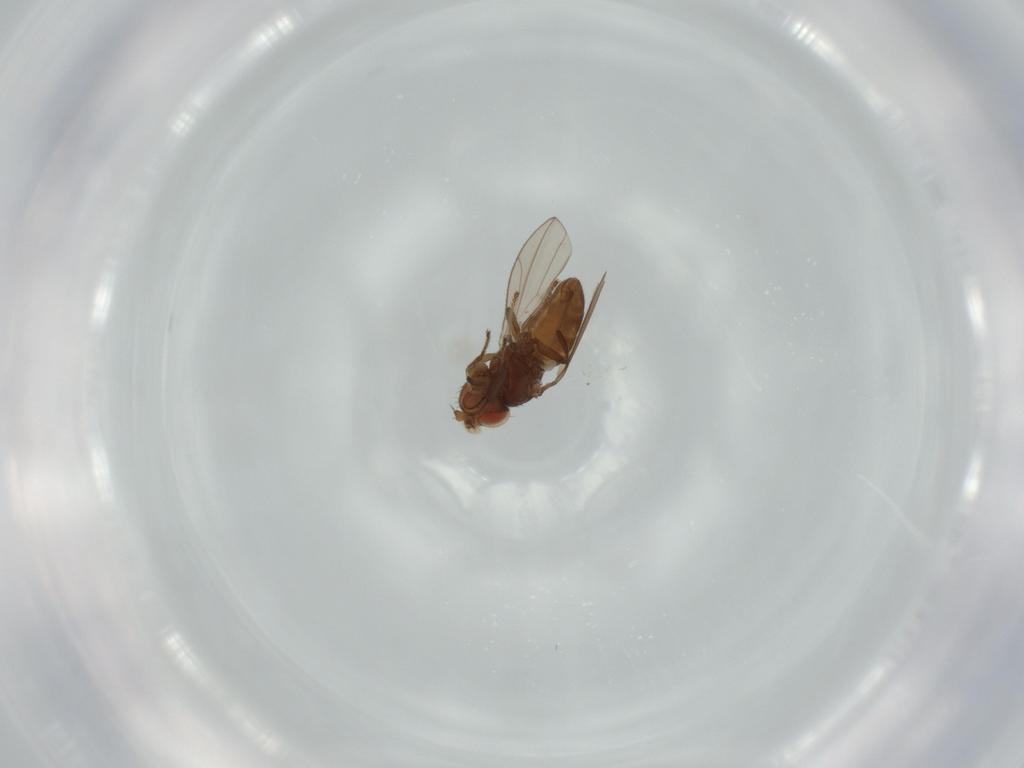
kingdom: Animalia
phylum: Arthropoda
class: Insecta
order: Diptera
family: Ephydridae
